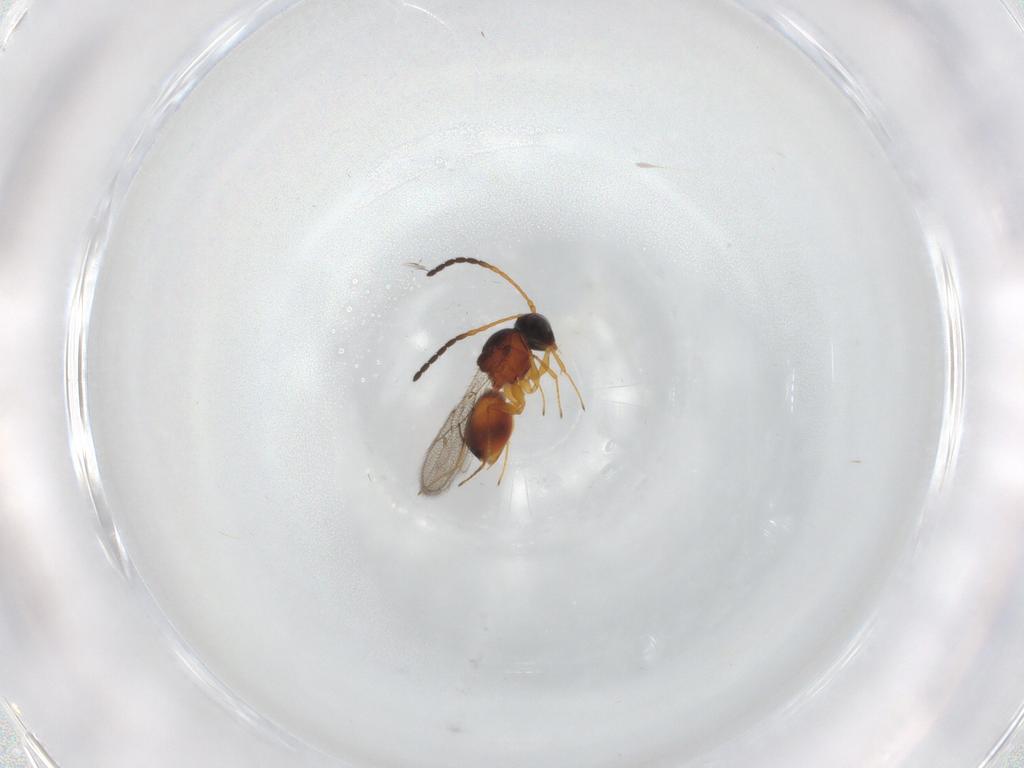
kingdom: Animalia
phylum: Arthropoda
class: Insecta
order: Hymenoptera
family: Figitidae
